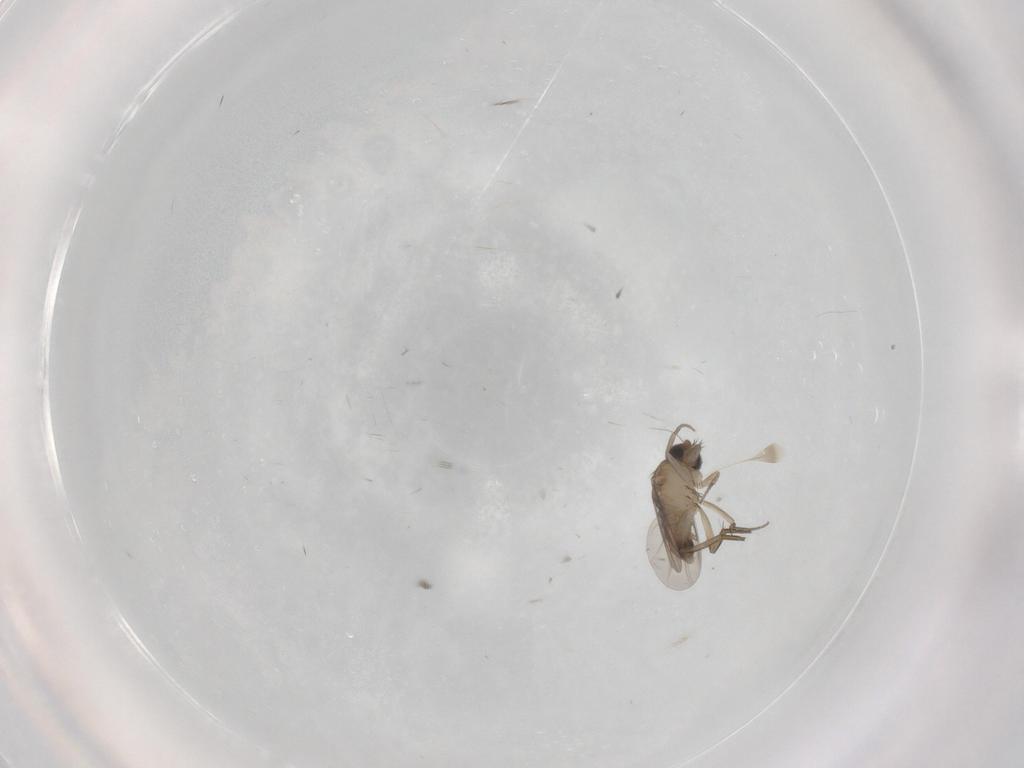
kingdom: Animalia
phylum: Arthropoda
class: Insecta
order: Diptera
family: Phoridae
